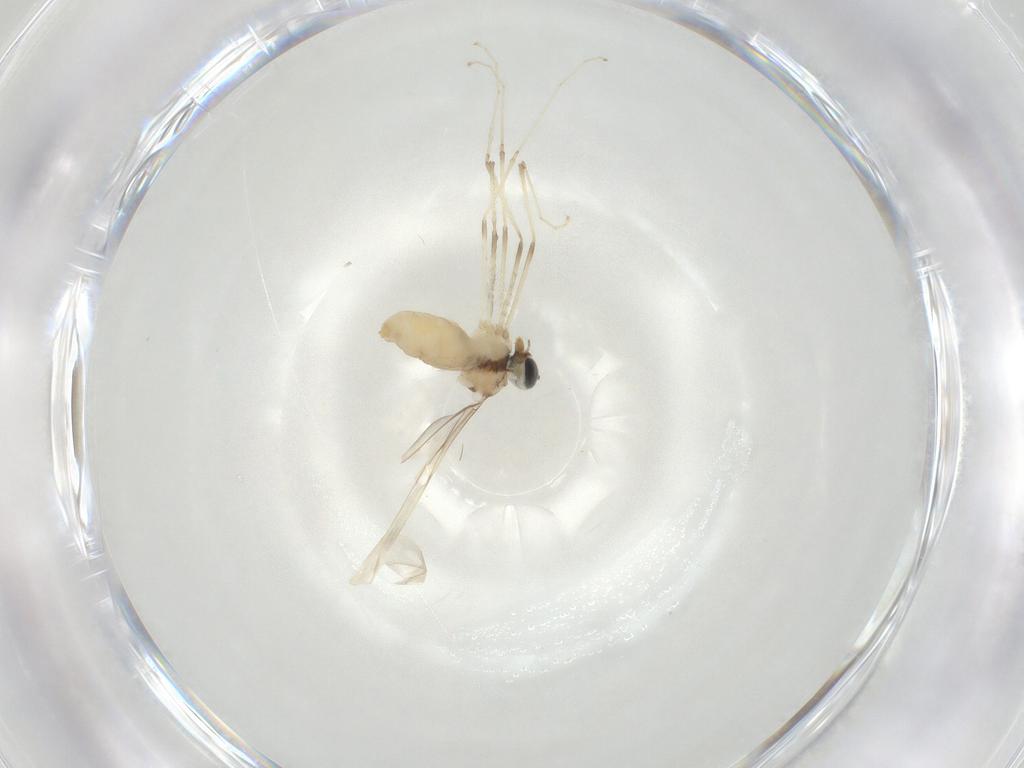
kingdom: Animalia
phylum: Arthropoda
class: Insecta
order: Diptera
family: Cecidomyiidae
